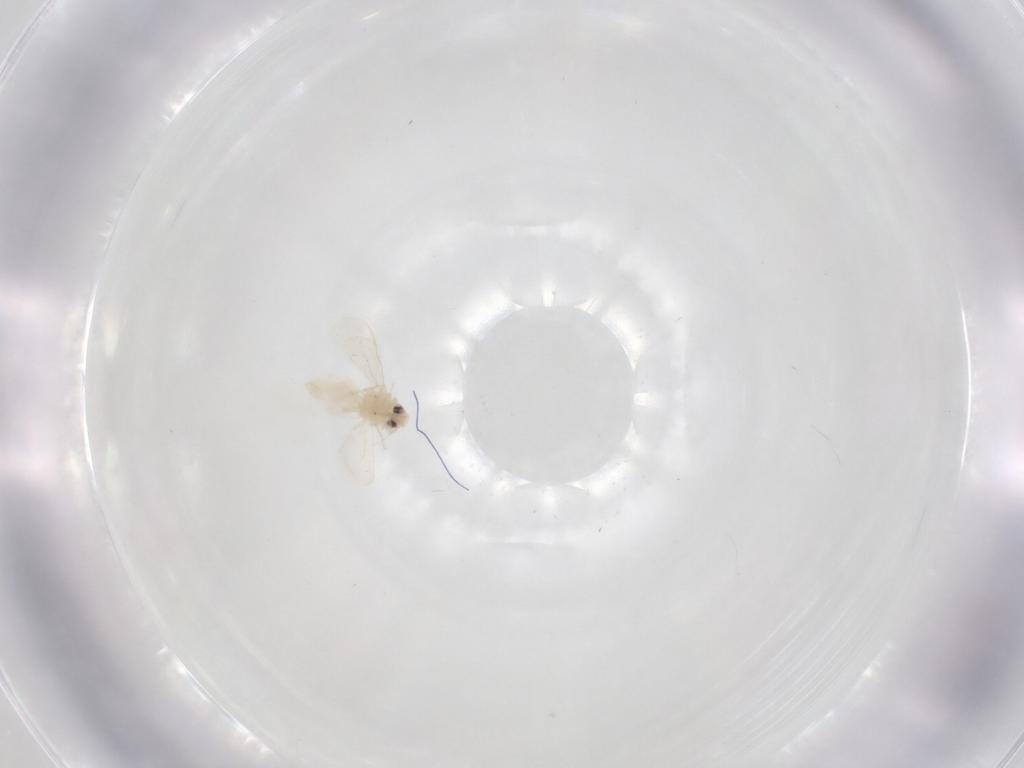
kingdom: Animalia
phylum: Arthropoda
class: Insecta
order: Hemiptera
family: Aleyrodidae
